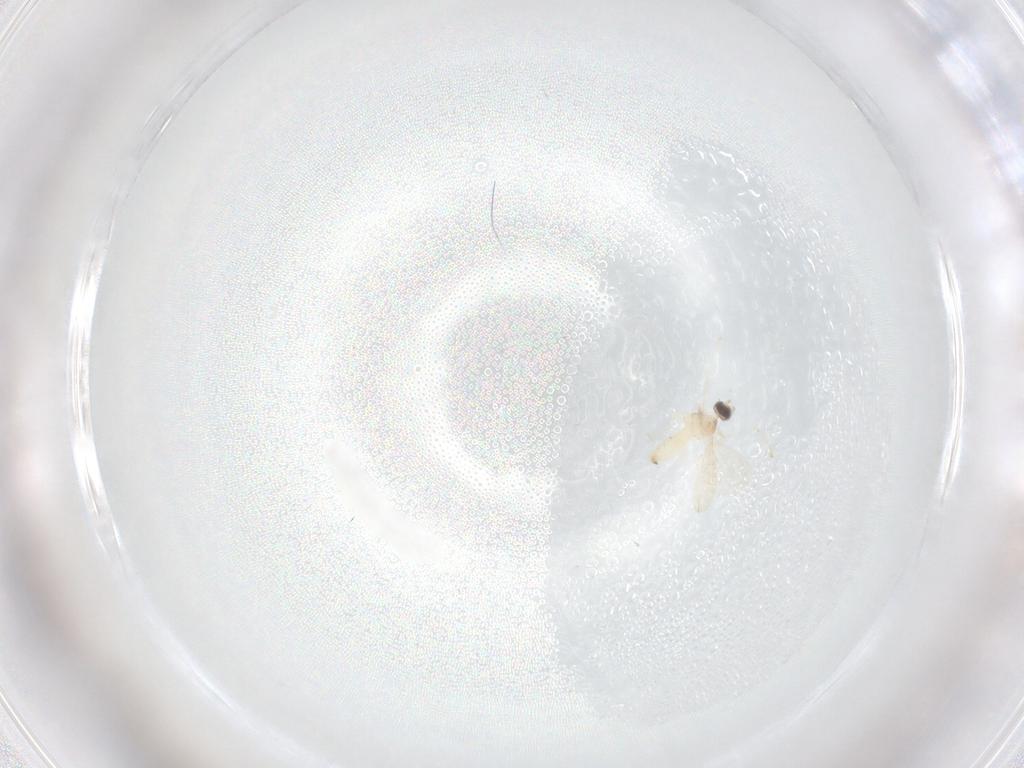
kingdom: Animalia
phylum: Arthropoda
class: Insecta
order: Diptera
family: Cecidomyiidae
